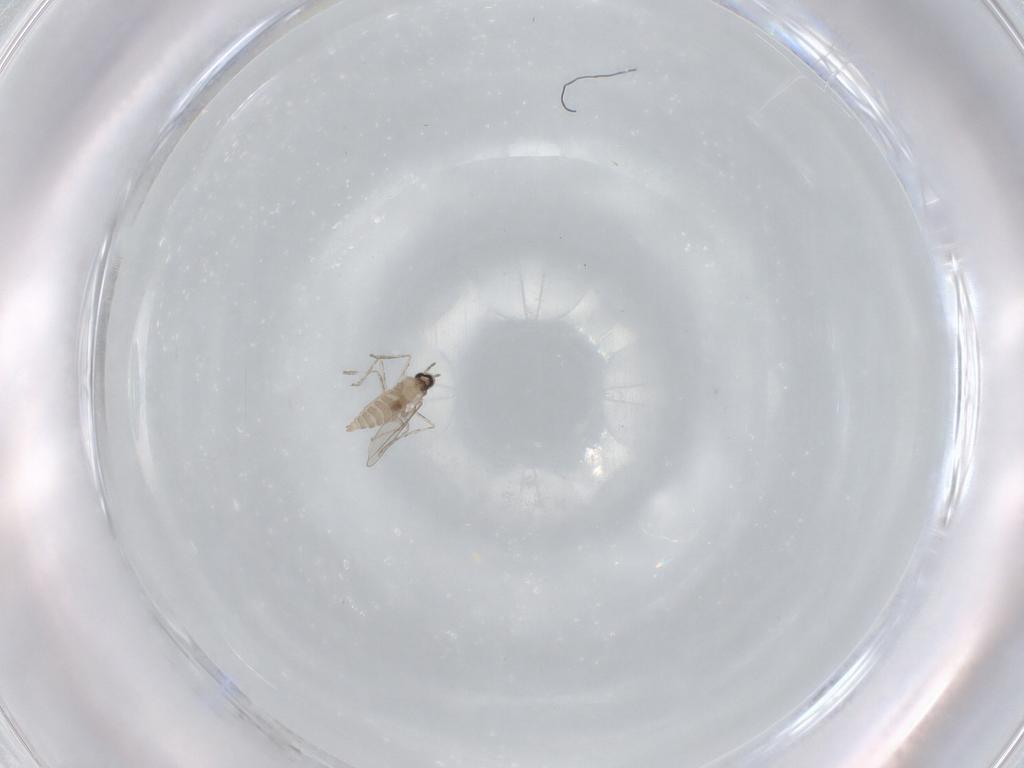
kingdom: Animalia
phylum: Arthropoda
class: Insecta
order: Diptera
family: Cecidomyiidae
